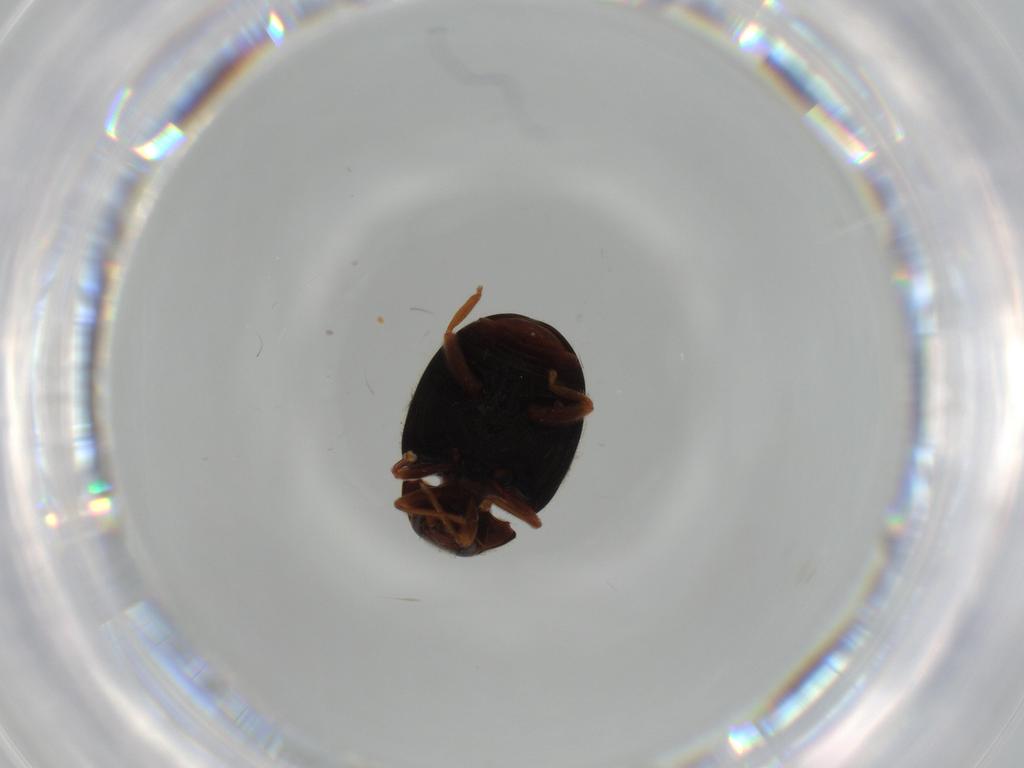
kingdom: Animalia
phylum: Arthropoda
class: Insecta
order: Coleoptera
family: Coccinellidae
